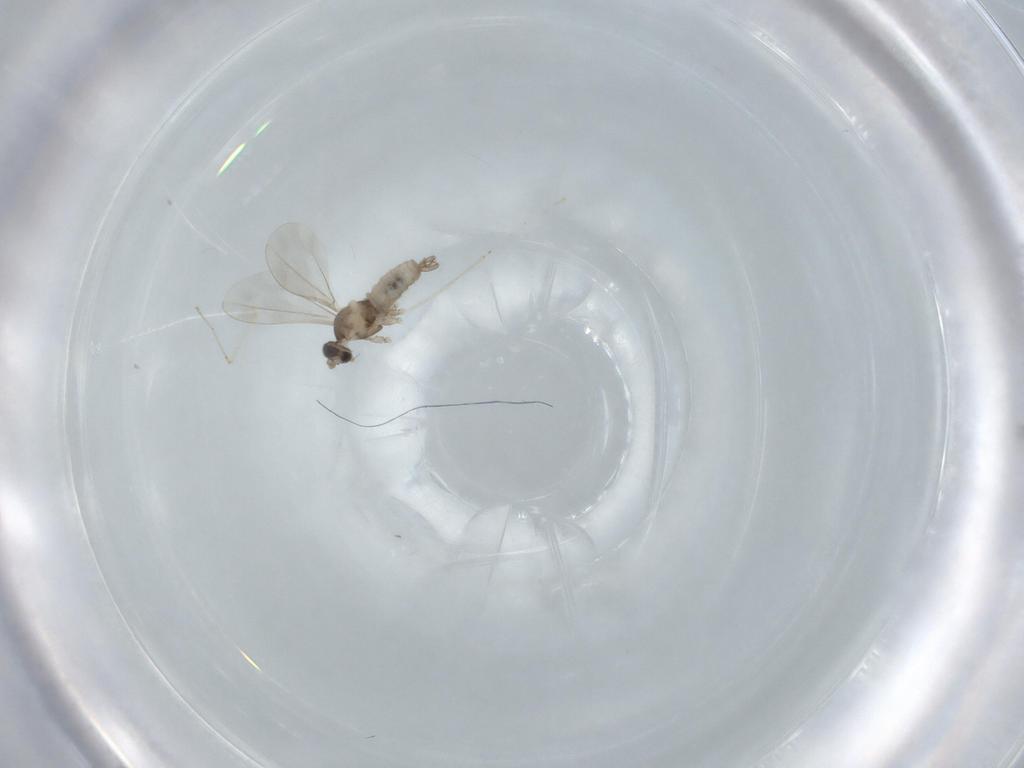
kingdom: Animalia
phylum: Arthropoda
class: Insecta
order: Diptera
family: Cecidomyiidae
